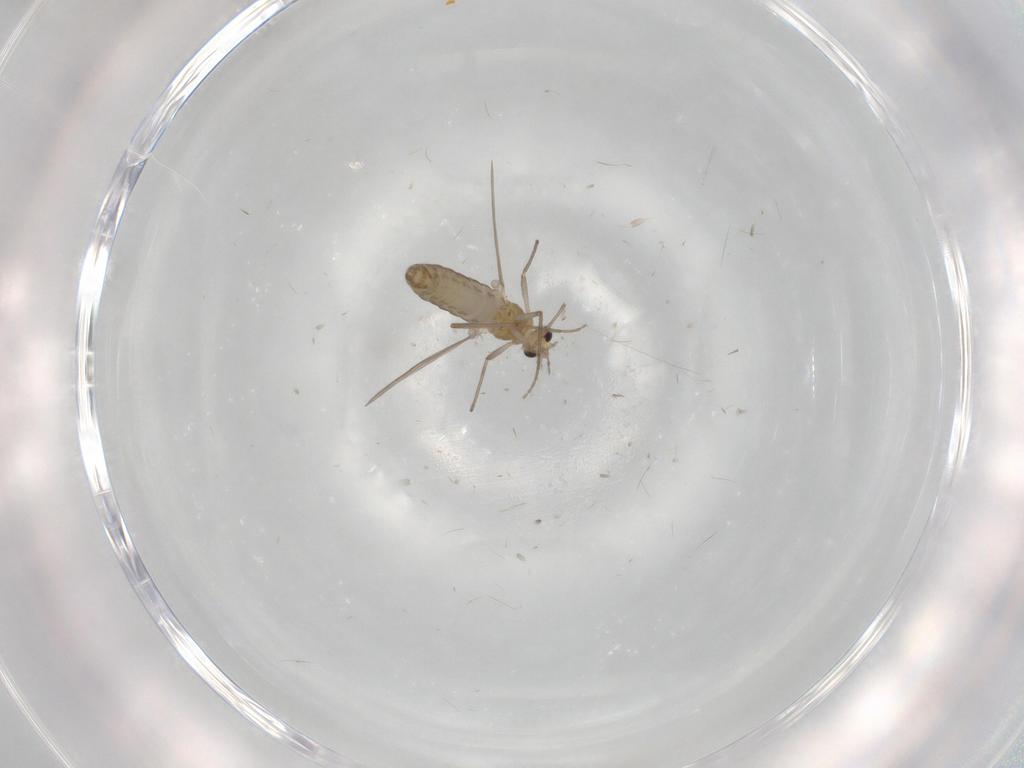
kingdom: Animalia
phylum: Arthropoda
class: Insecta
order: Diptera
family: Chironomidae
